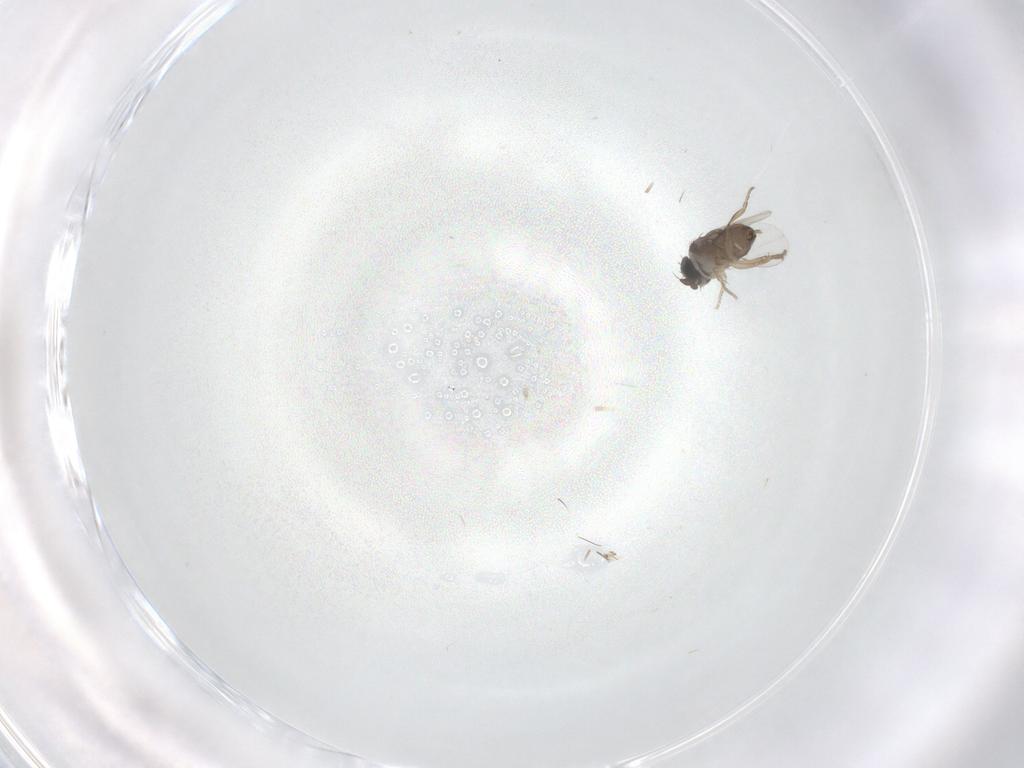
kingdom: Animalia
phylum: Arthropoda
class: Insecta
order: Diptera
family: Phoridae
